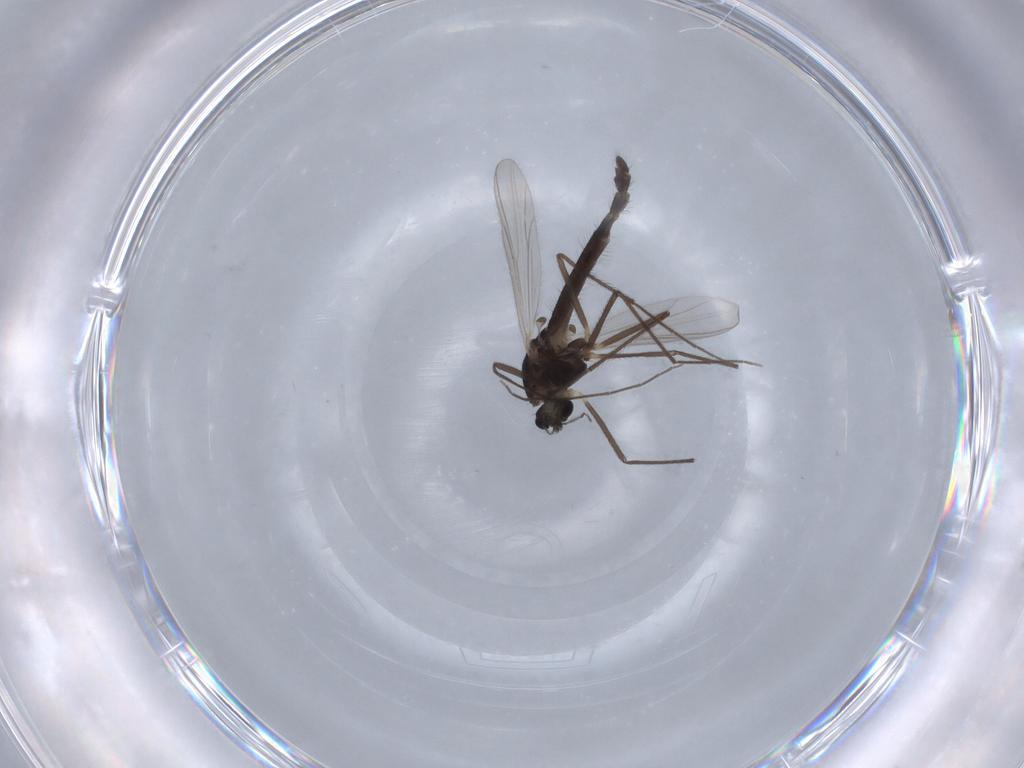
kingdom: Animalia
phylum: Arthropoda
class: Insecta
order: Diptera
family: Chironomidae
